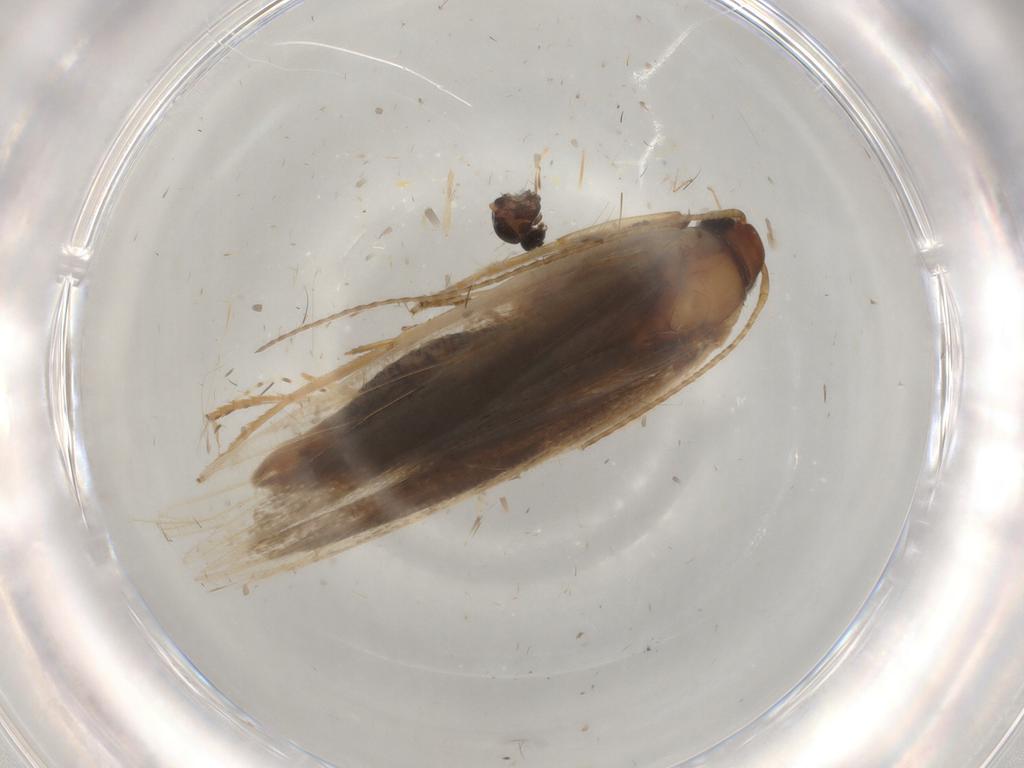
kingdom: Animalia
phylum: Arthropoda
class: Insecta
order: Lepidoptera
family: Gelechiidae
